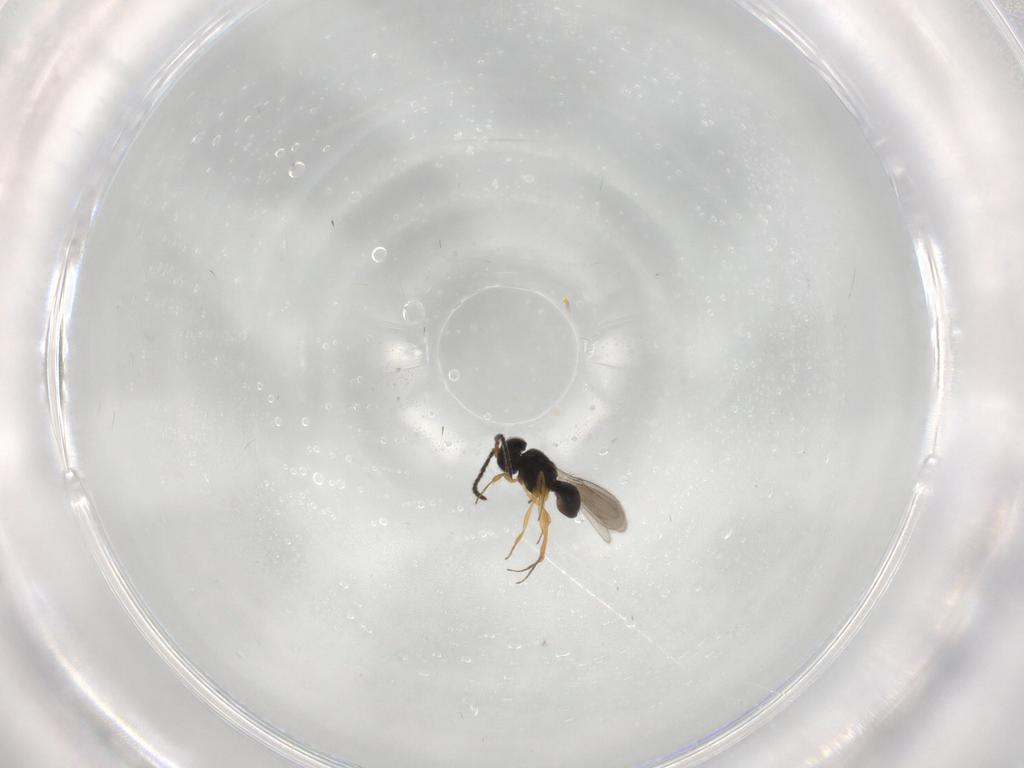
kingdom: Animalia
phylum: Arthropoda
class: Insecta
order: Hymenoptera
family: Scelionidae
